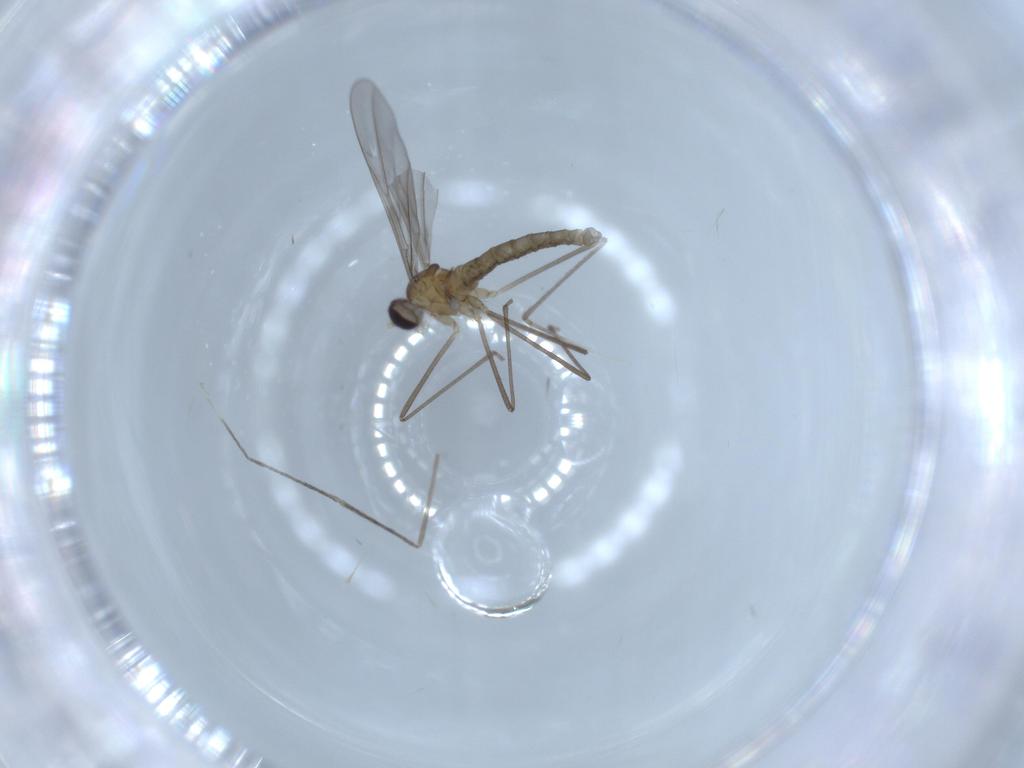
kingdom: Animalia
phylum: Arthropoda
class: Insecta
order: Diptera
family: Cecidomyiidae
